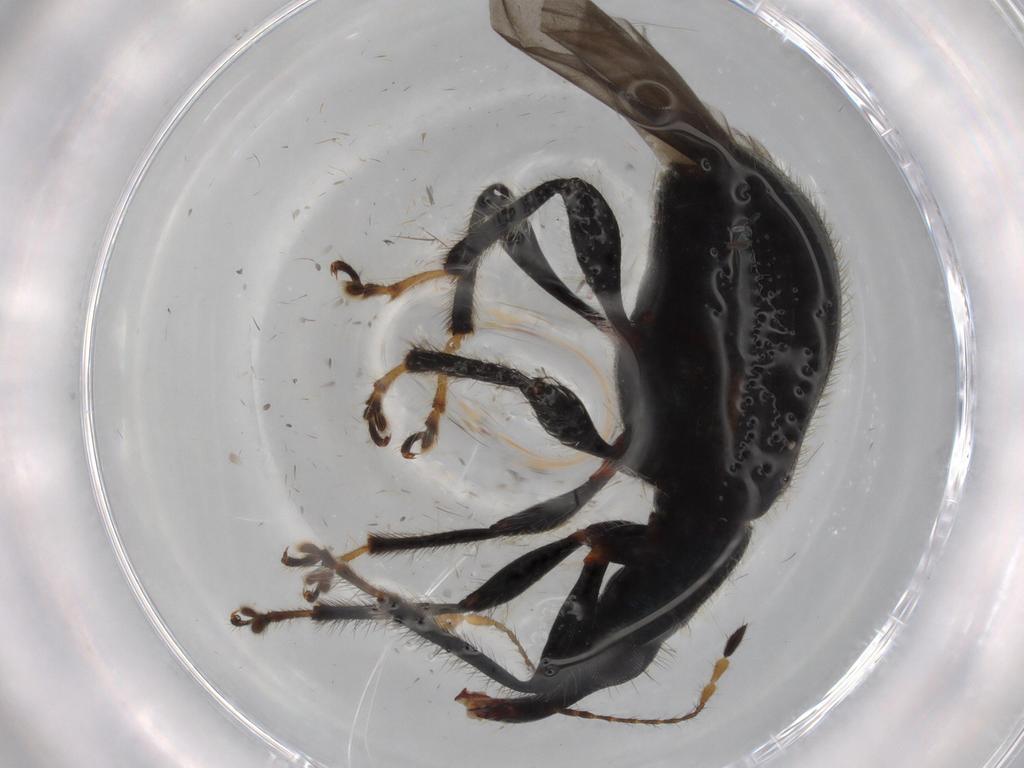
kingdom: Animalia
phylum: Arthropoda
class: Insecta
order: Coleoptera
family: Attelabidae
